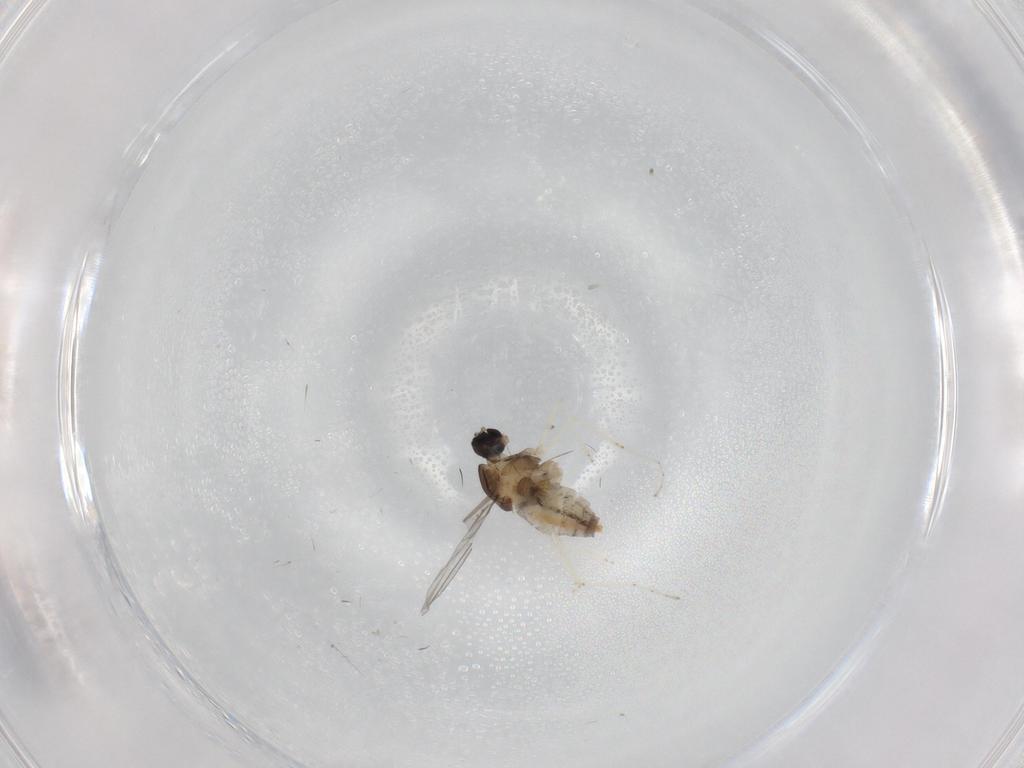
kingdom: Animalia
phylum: Arthropoda
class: Insecta
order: Diptera
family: Cecidomyiidae
